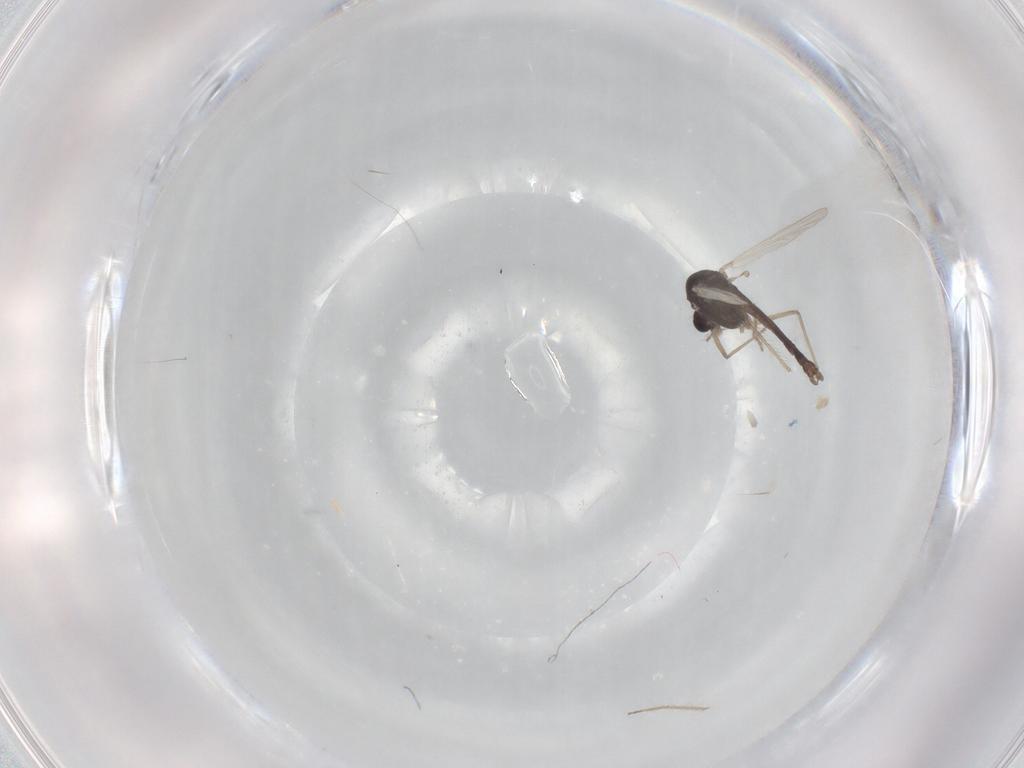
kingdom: Animalia
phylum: Arthropoda
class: Insecta
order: Diptera
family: Chironomidae
